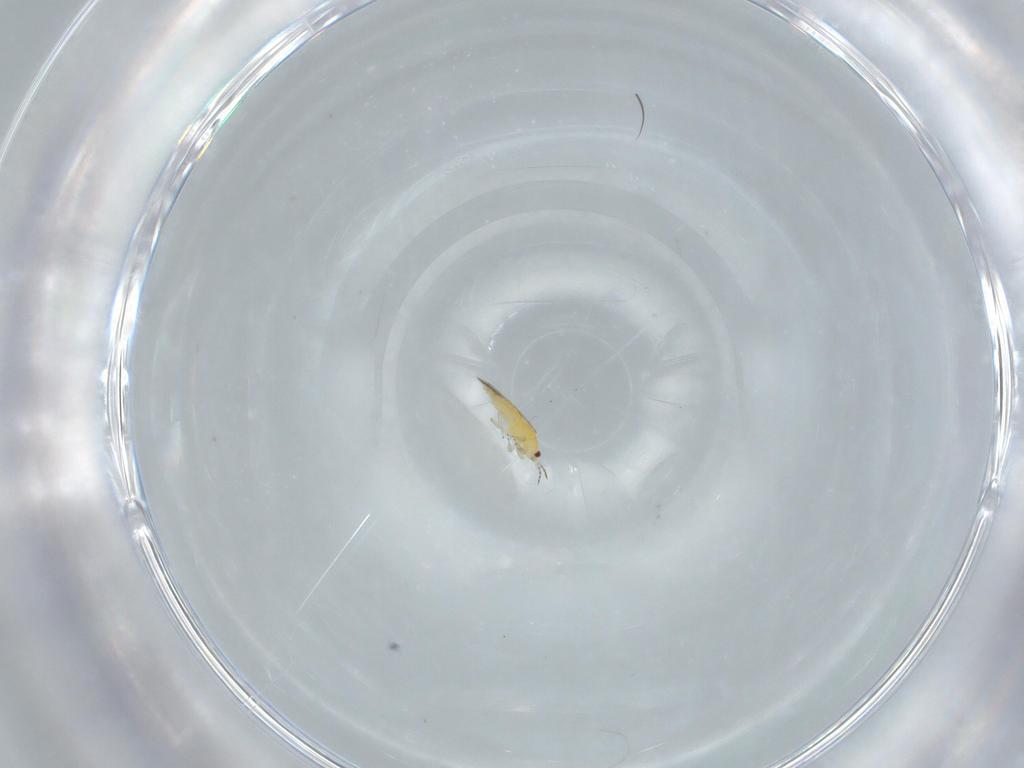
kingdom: Animalia
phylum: Arthropoda
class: Insecta
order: Thysanoptera
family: Thripidae
